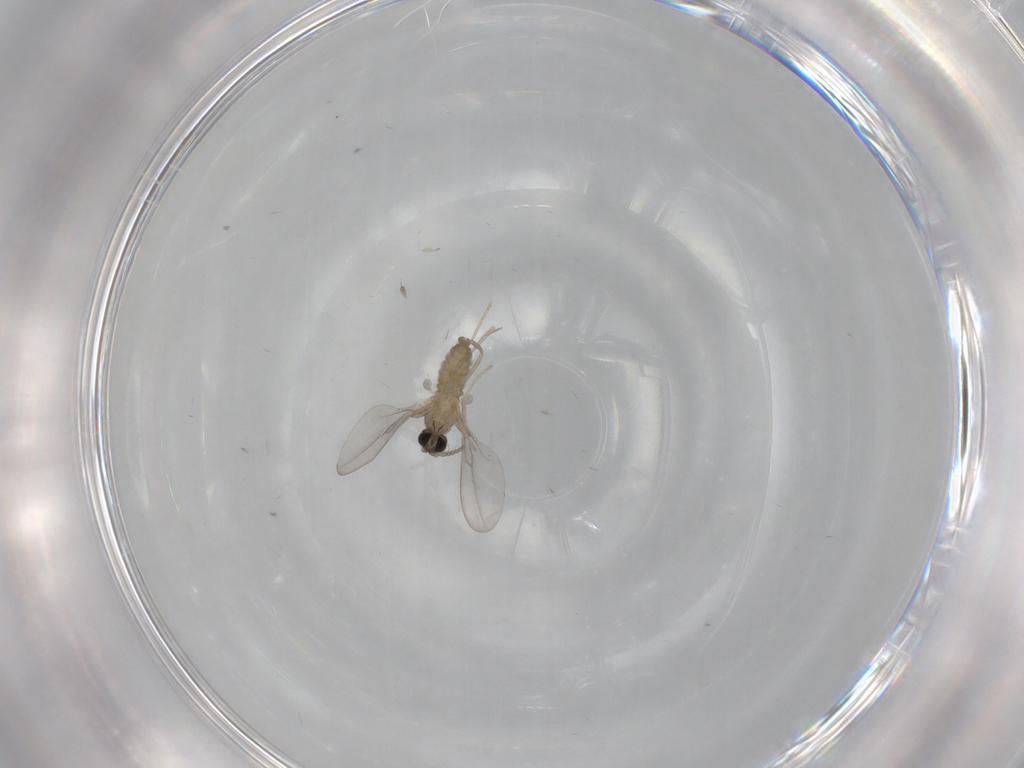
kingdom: Animalia
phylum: Arthropoda
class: Insecta
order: Diptera
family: Cecidomyiidae
